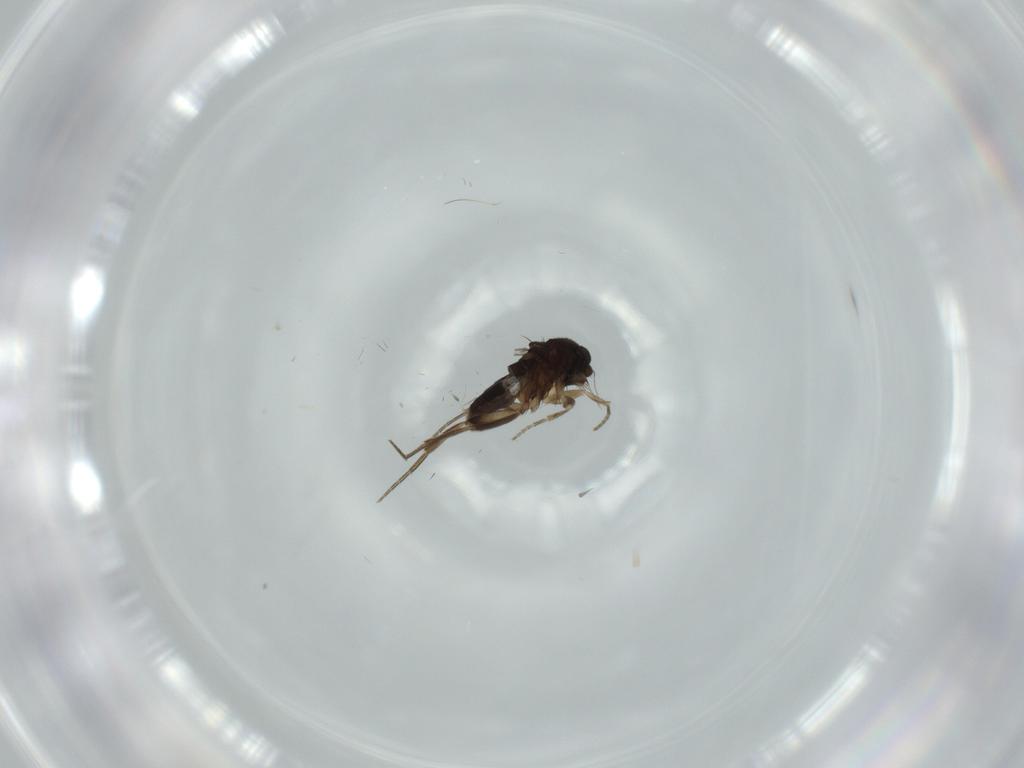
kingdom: Animalia
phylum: Arthropoda
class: Insecta
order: Diptera
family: Phoridae
